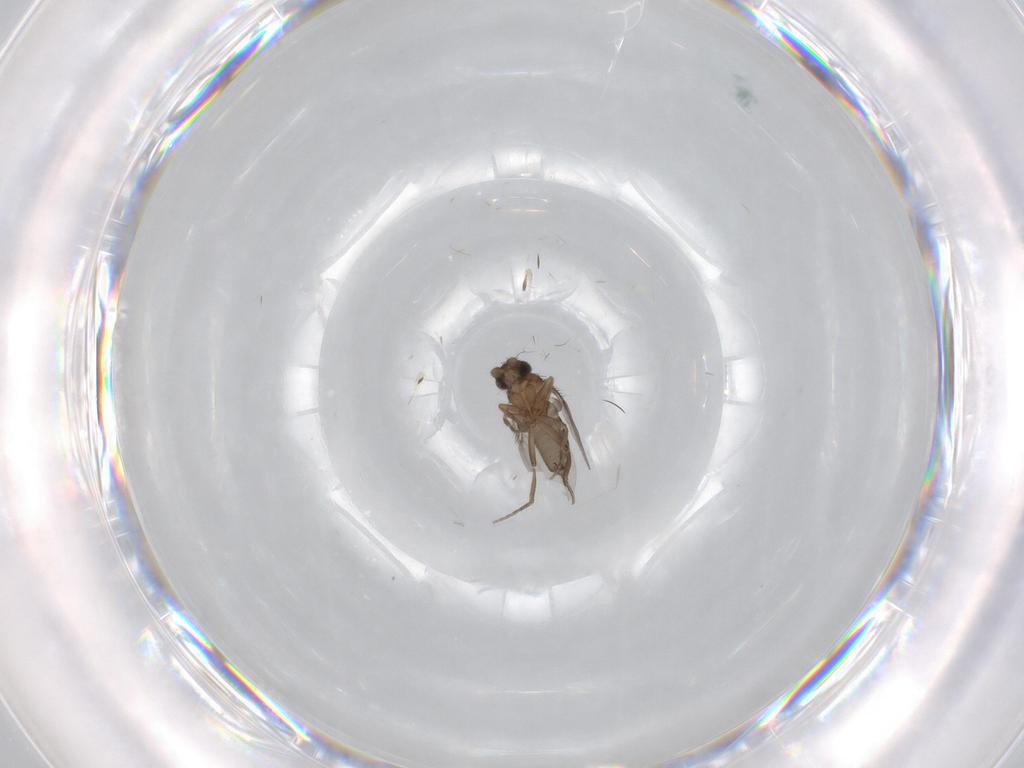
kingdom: Animalia
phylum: Arthropoda
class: Insecta
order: Diptera
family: Phoridae
